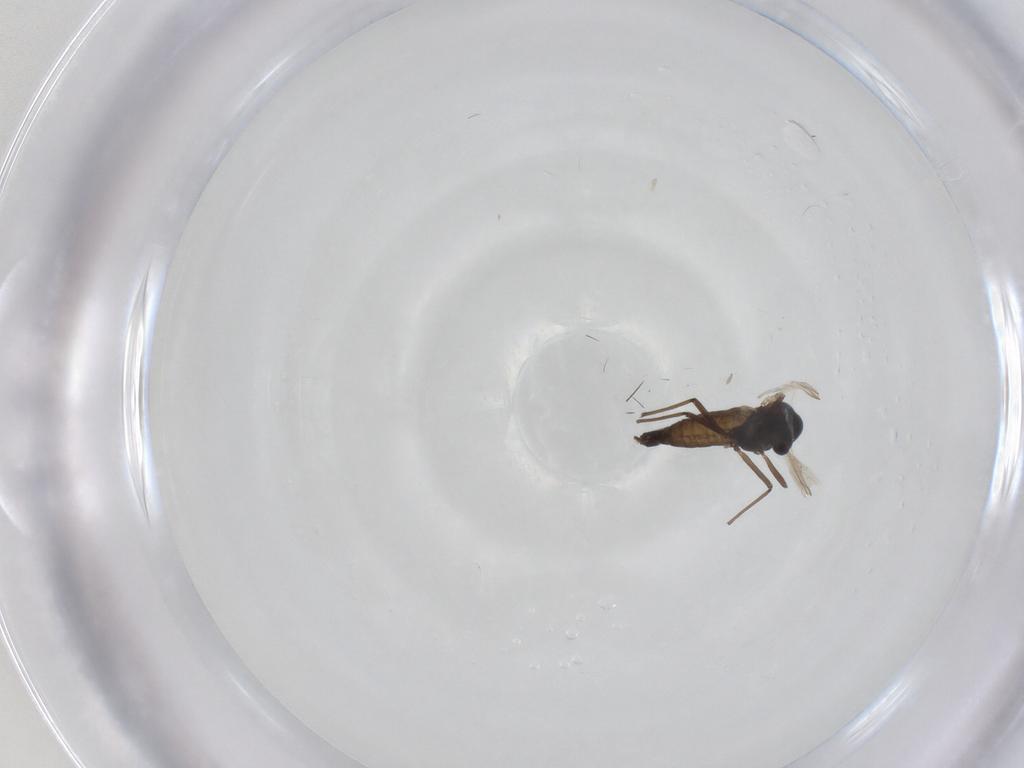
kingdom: Animalia
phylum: Arthropoda
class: Insecta
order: Diptera
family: Chironomidae
